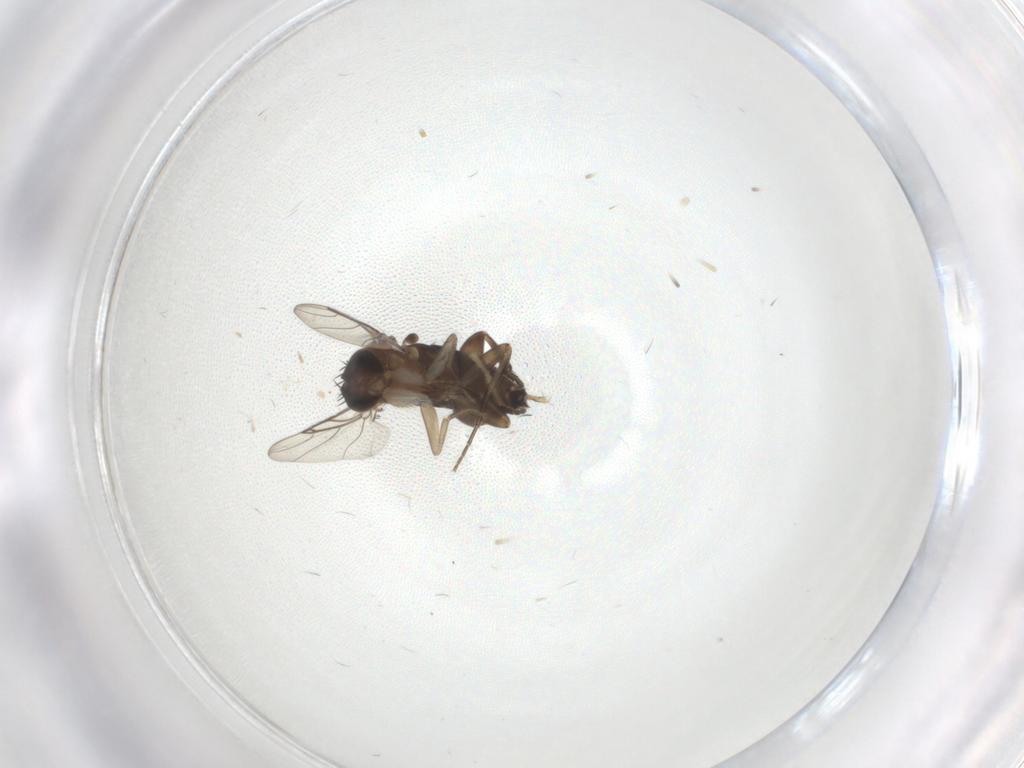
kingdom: Animalia
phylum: Arthropoda
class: Insecta
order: Diptera
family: Phoridae
